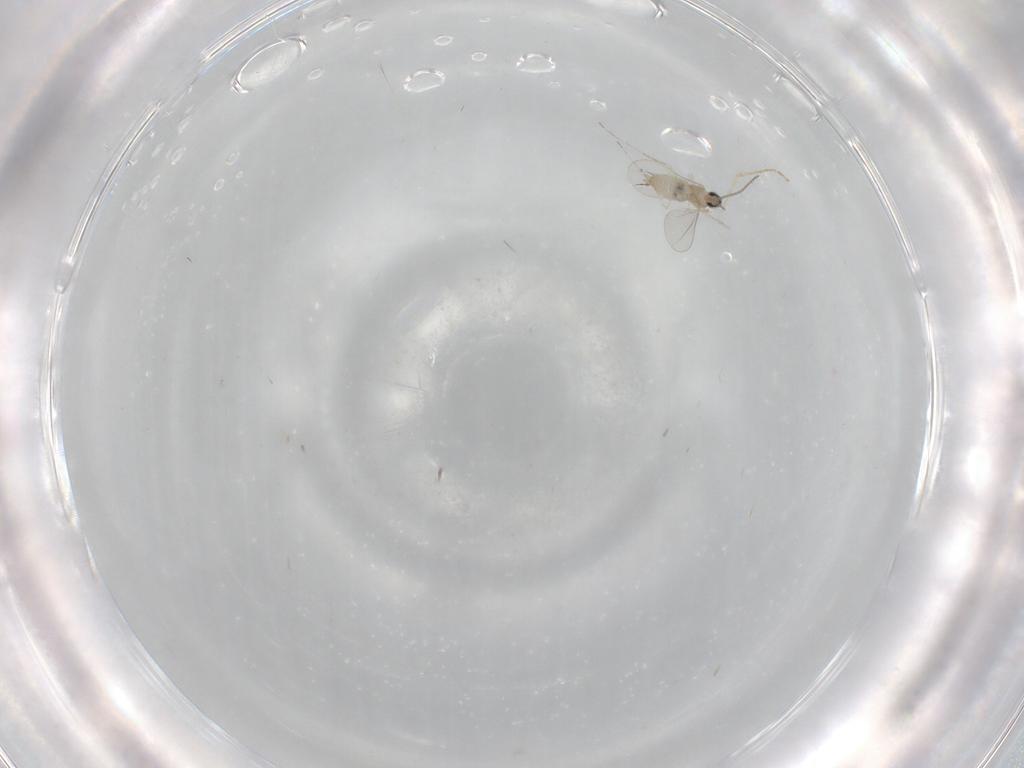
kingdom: Animalia
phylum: Arthropoda
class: Insecta
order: Diptera
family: Cecidomyiidae
